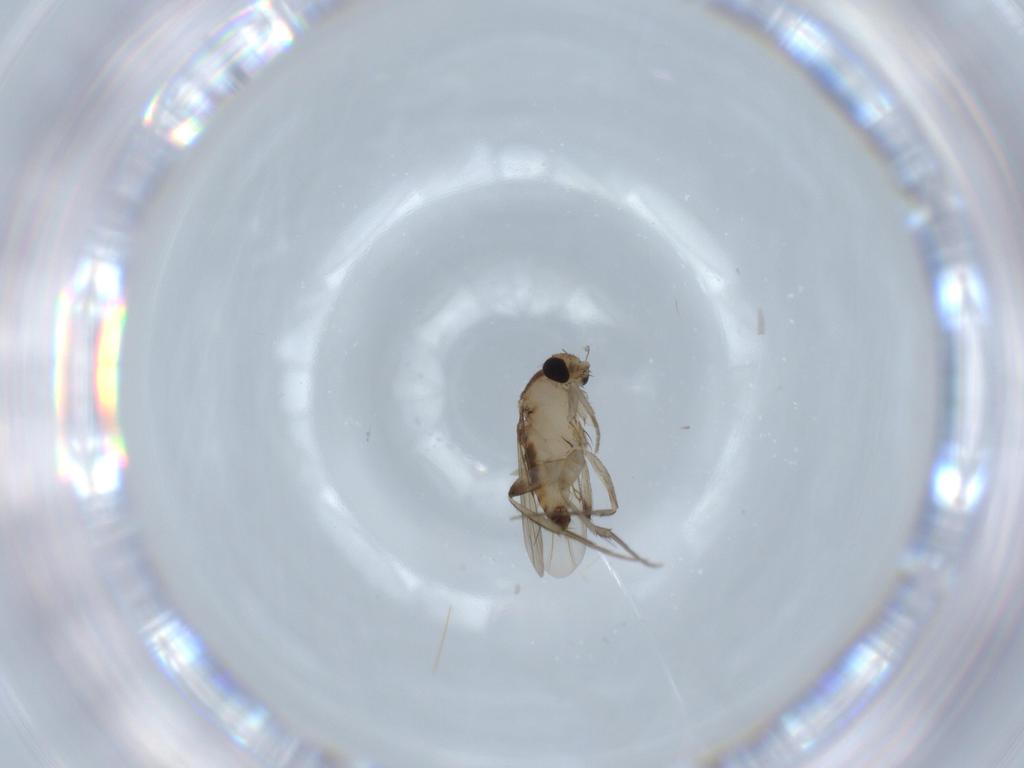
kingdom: Animalia
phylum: Arthropoda
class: Insecta
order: Diptera
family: Phoridae
